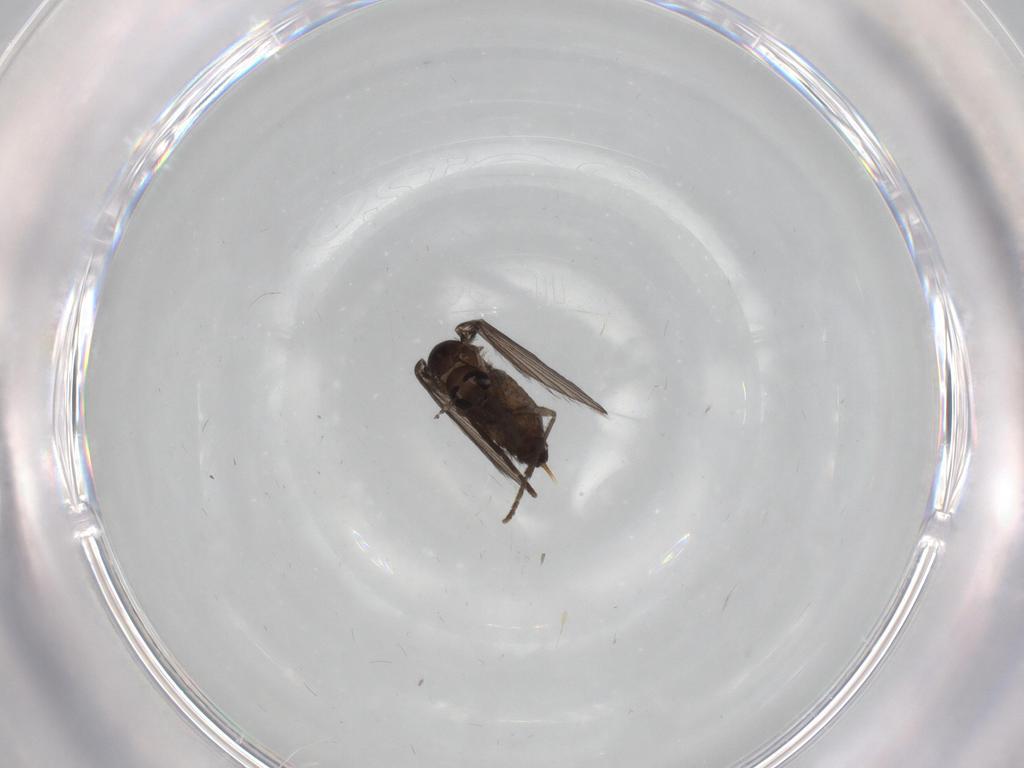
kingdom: Animalia
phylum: Arthropoda
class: Insecta
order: Diptera
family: Psychodidae
